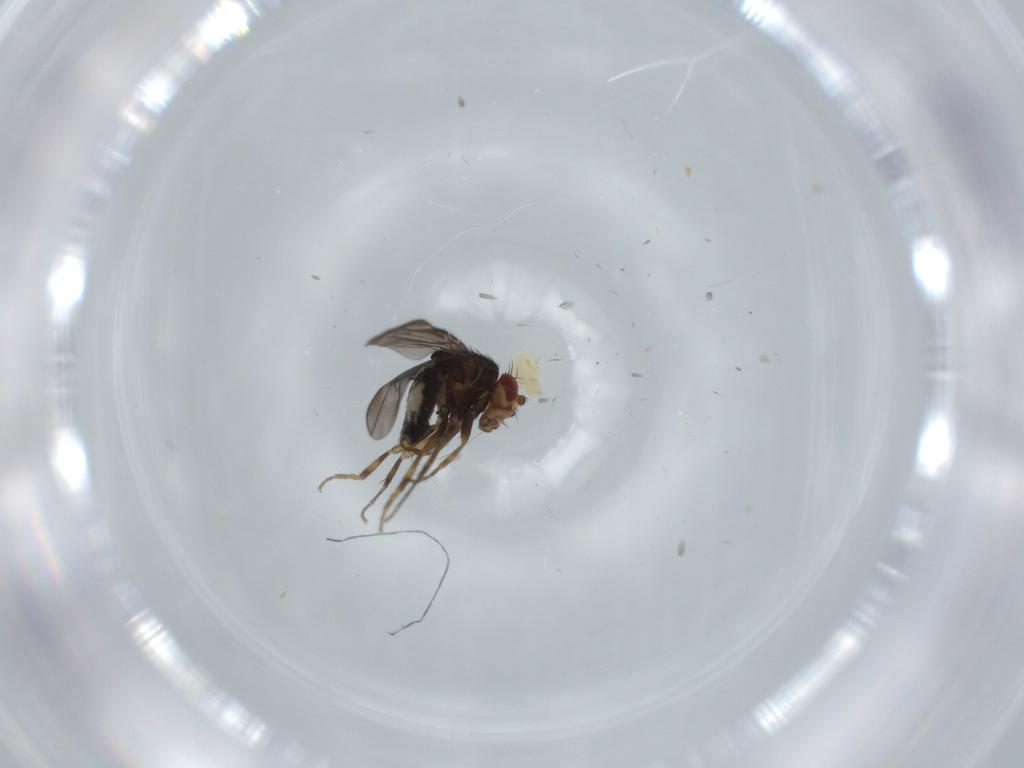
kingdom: Animalia
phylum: Arthropoda
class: Insecta
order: Diptera
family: Sphaeroceridae
